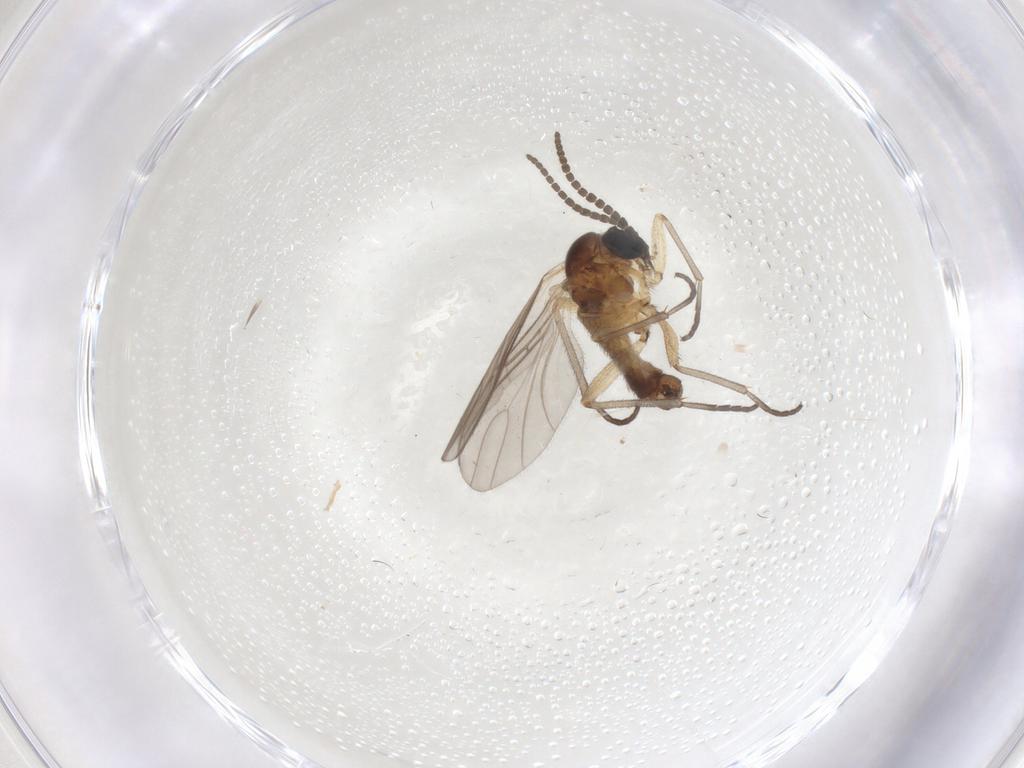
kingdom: Animalia
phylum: Arthropoda
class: Insecta
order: Diptera
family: Sciaridae
